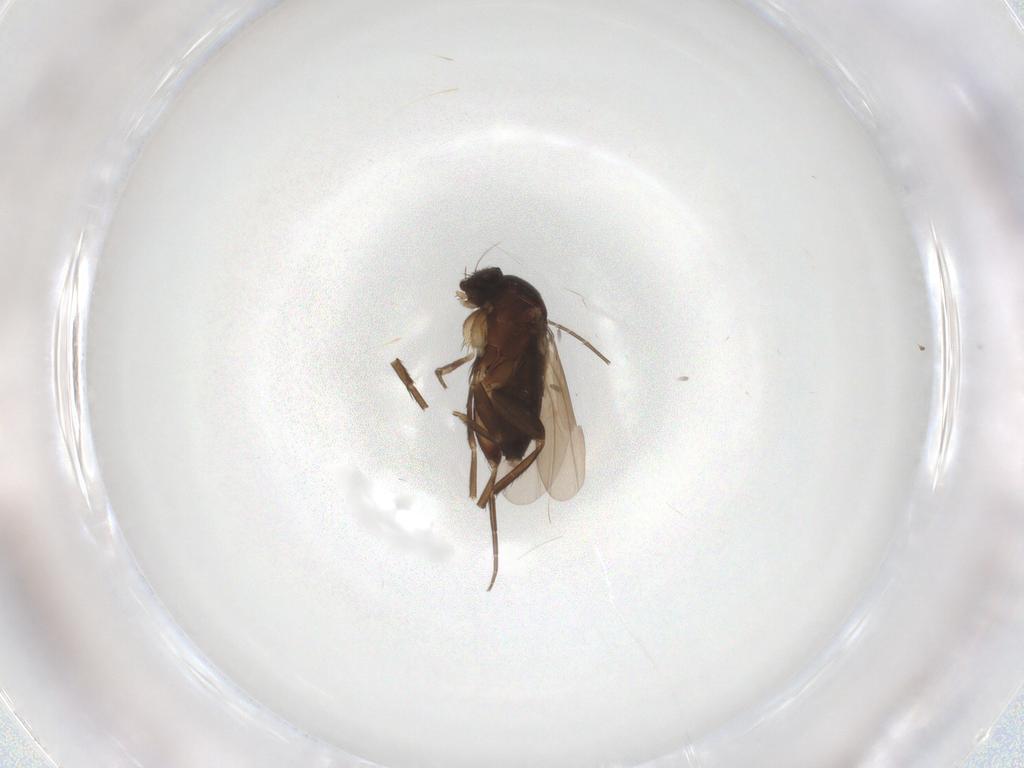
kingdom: Animalia
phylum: Arthropoda
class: Insecta
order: Diptera
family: Phoridae
